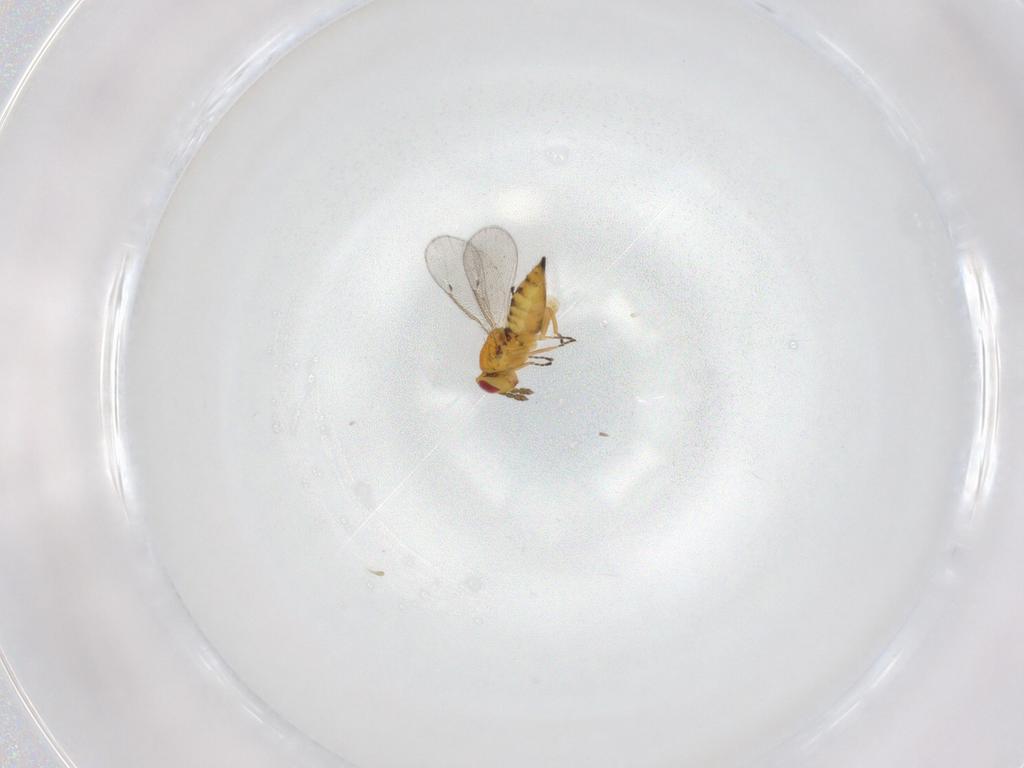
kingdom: Animalia
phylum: Arthropoda
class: Insecta
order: Hymenoptera
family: Eulophidae
